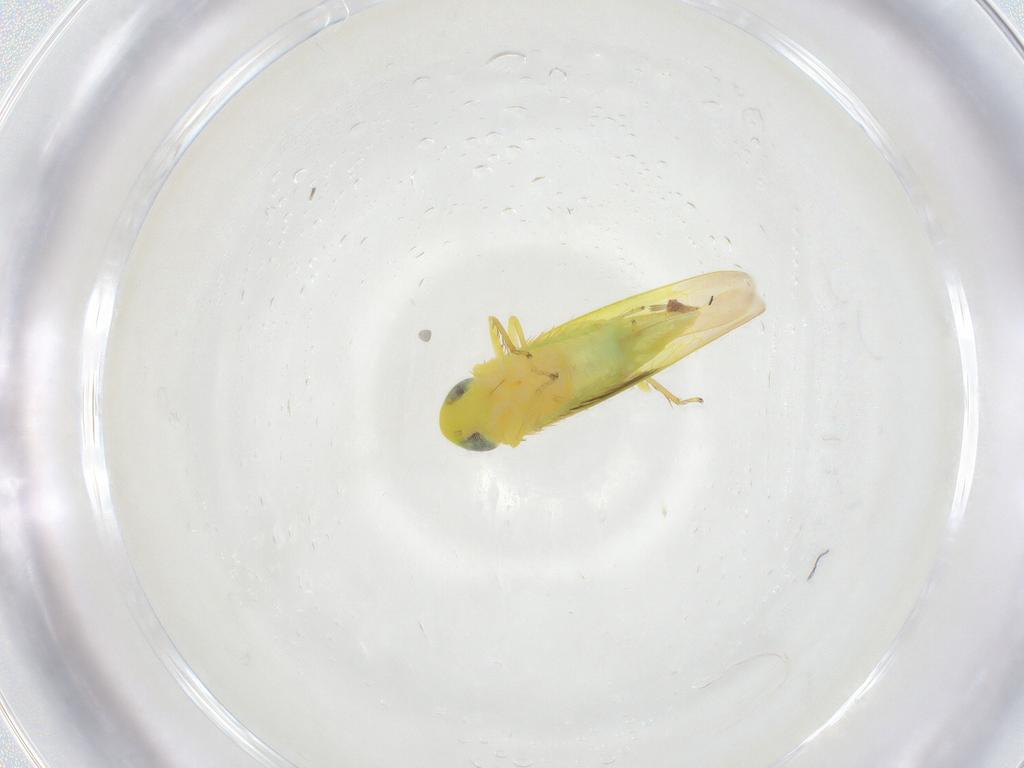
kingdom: Animalia
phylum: Arthropoda
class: Insecta
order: Hemiptera
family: Cicadellidae
